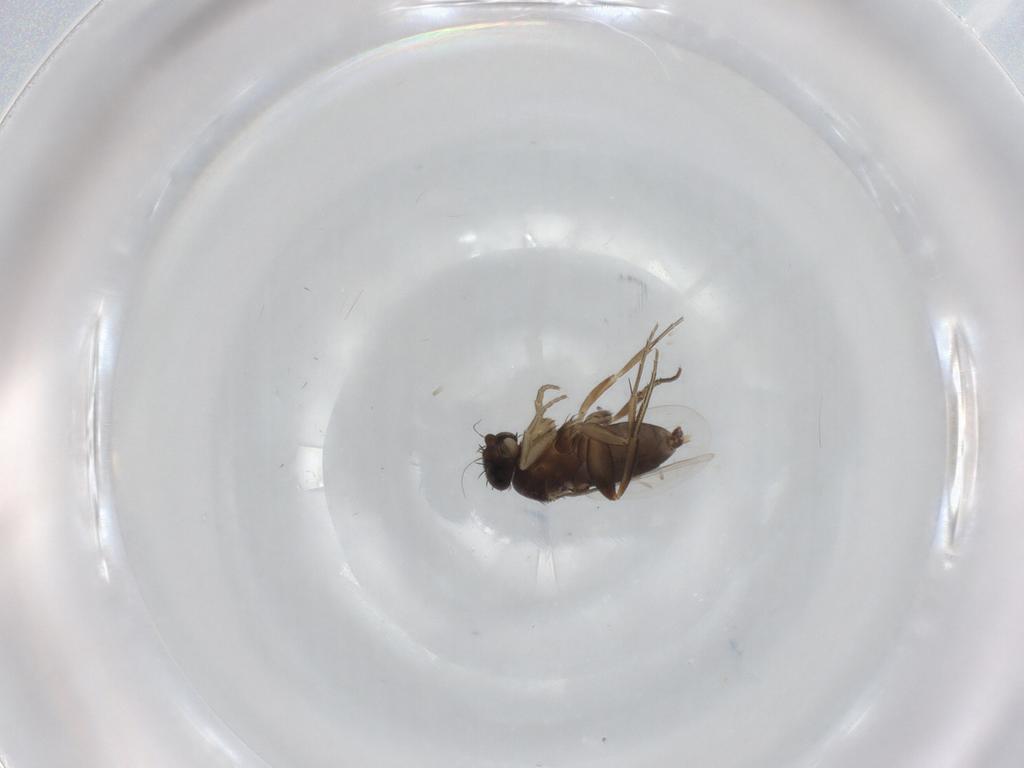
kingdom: Animalia
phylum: Arthropoda
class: Insecta
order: Diptera
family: Phoridae
